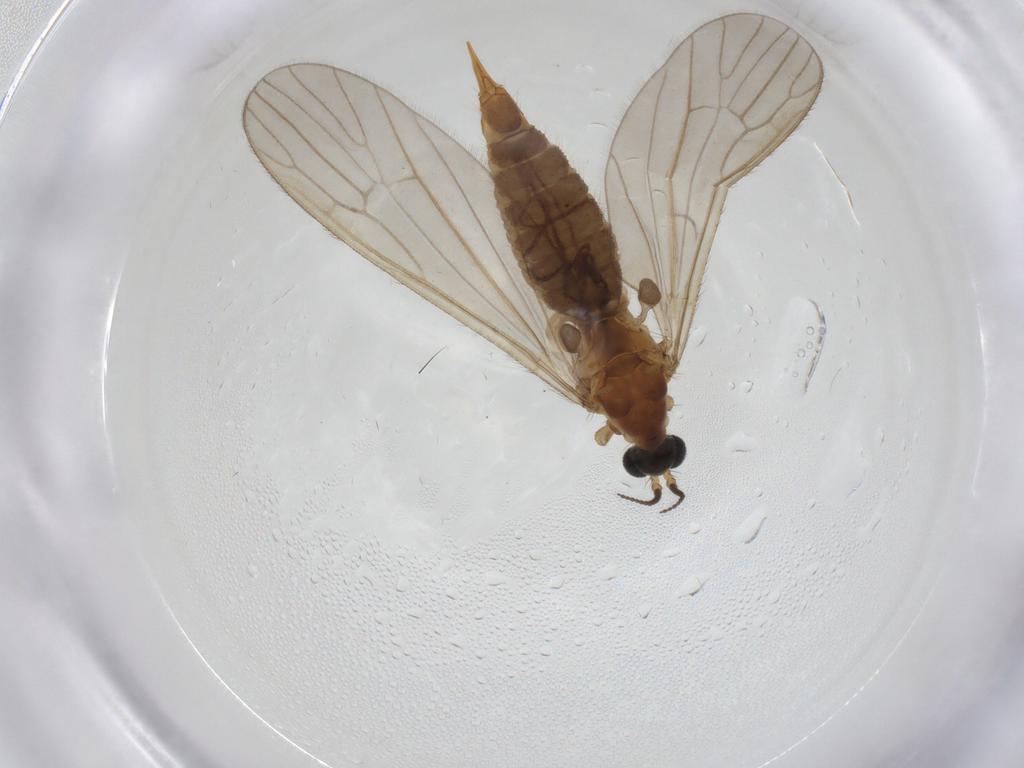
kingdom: Animalia
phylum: Arthropoda
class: Insecta
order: Diptera
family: Limoniidae
